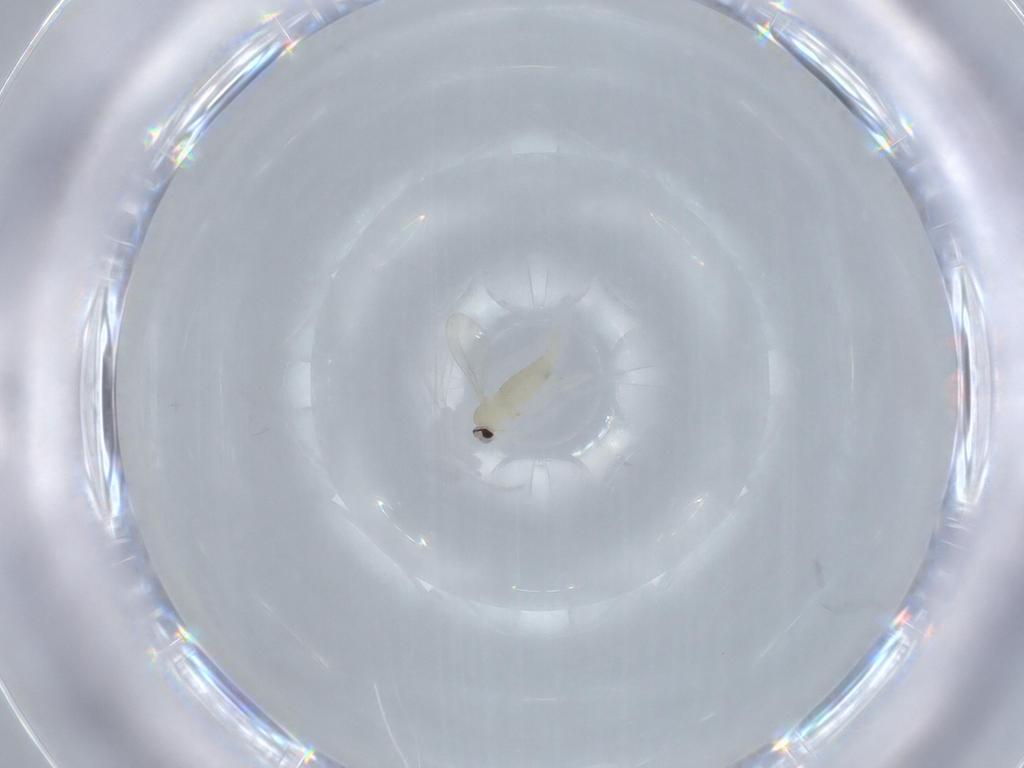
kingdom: Animalia
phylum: Arthropoda
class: Insecta
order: Diptera
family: Cecidomyiidae
